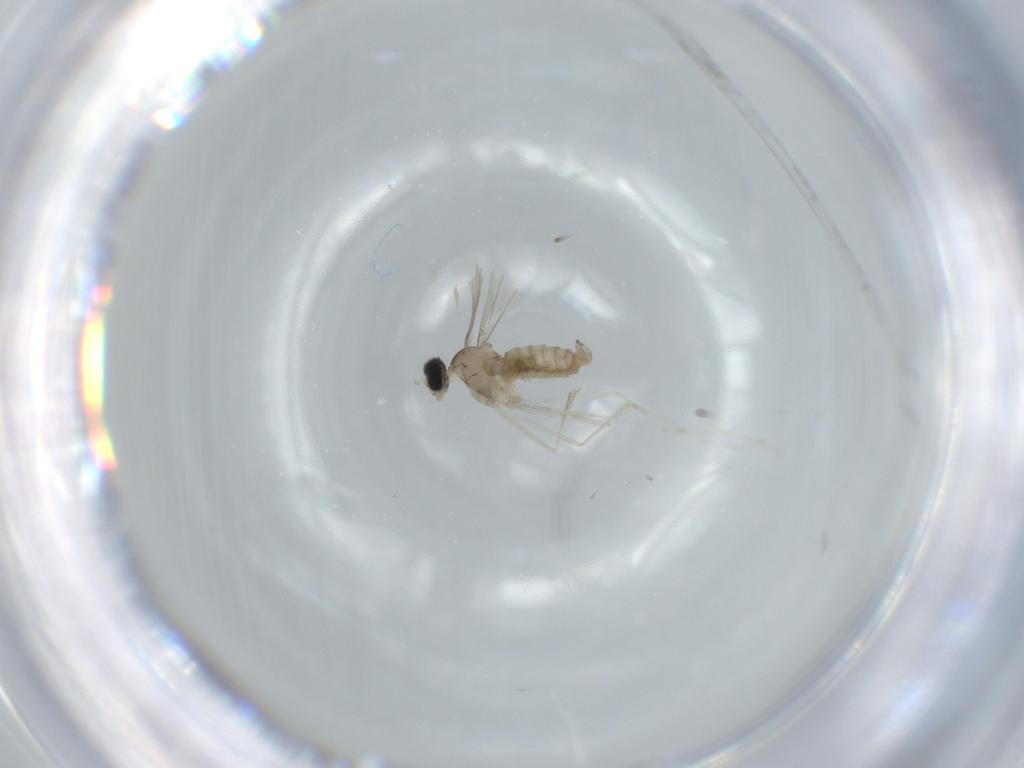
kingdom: Animalia
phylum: Arthropoda
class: Insecta
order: Diptera
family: Cecidomyiidae
